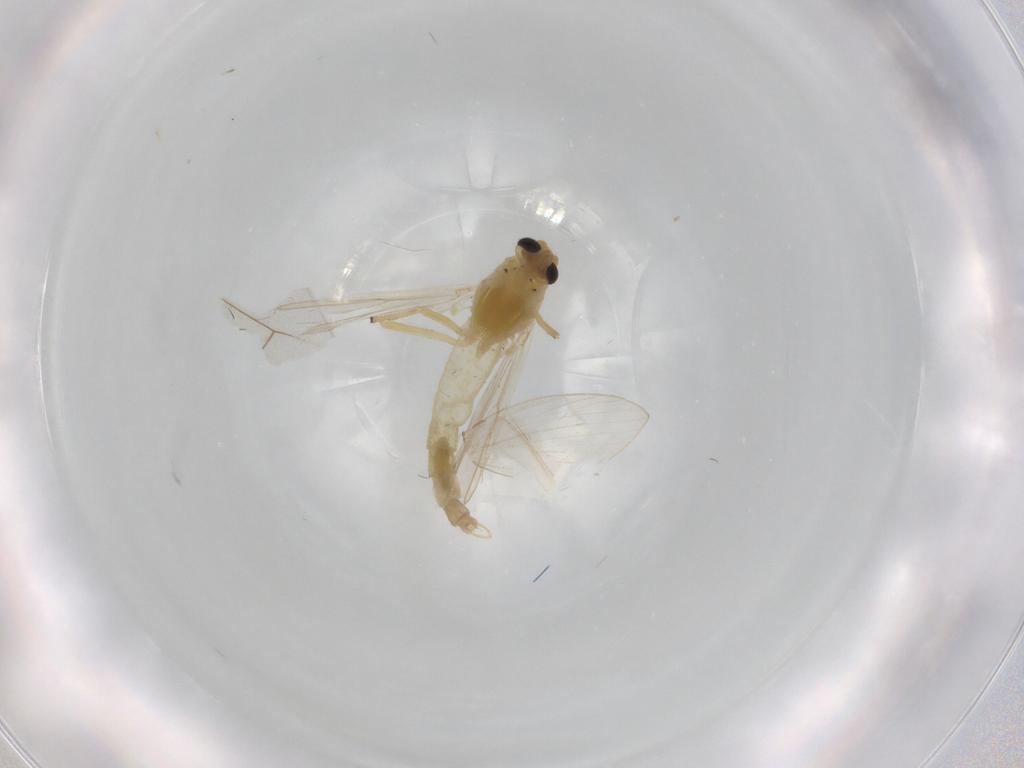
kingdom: Animalia
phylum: Arthropoda
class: Insecta
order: Diptera
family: Chironomidae
